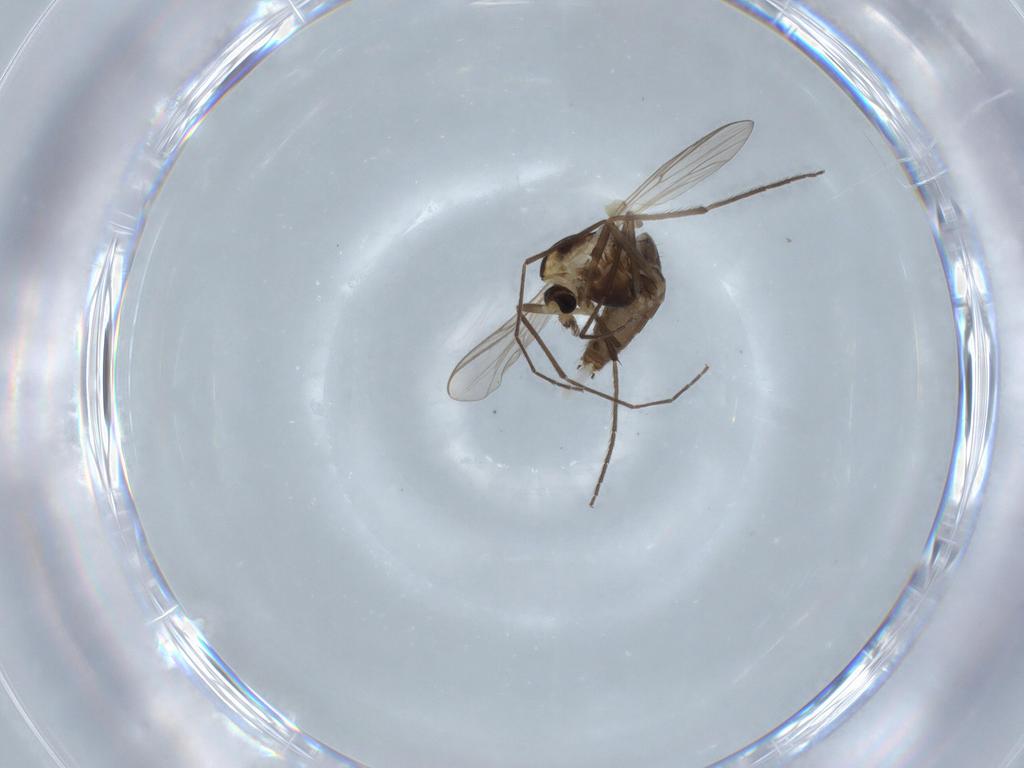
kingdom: Animalia
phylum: Arthropoda
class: Insecta
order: Diptera
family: Chironomidae
